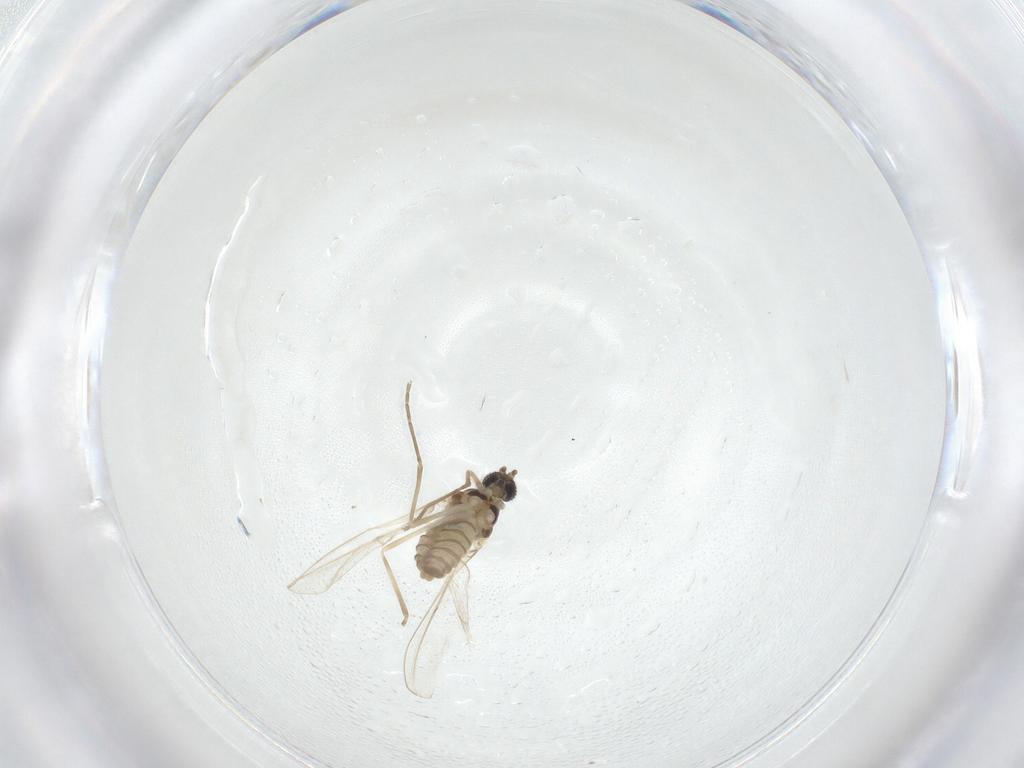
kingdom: Animalia
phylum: Arthropoda
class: Insecta
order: Diptera
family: Cecidomyiidae
